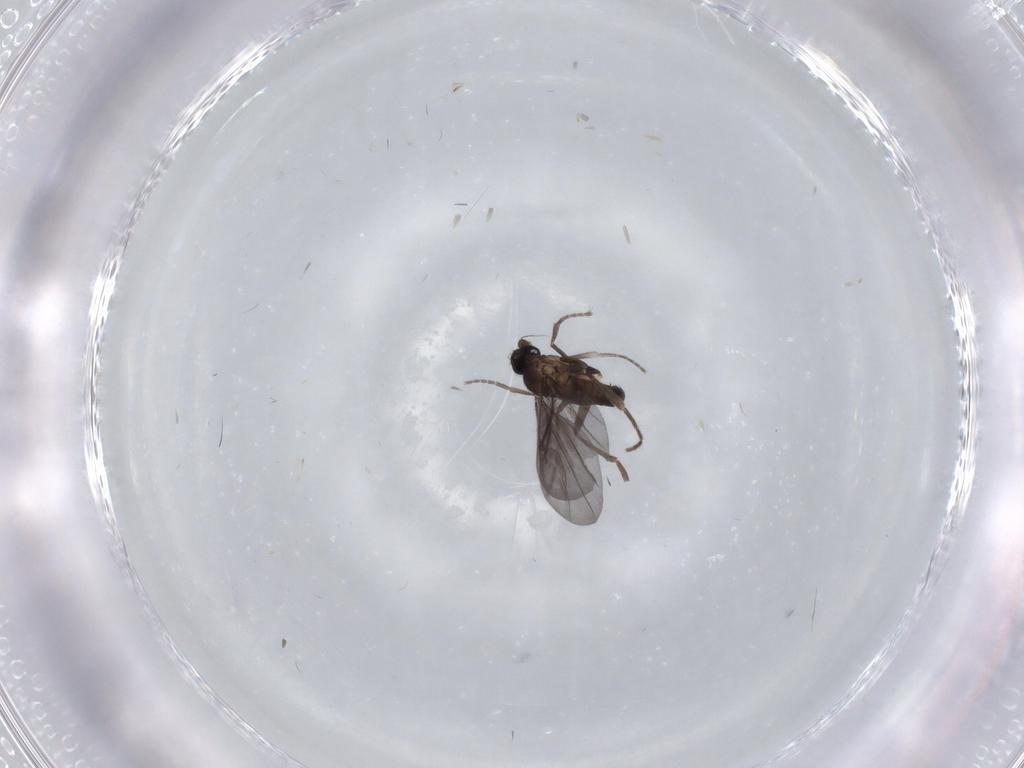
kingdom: Animalia
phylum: Arthropoda
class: Insecta
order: Diptera
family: Phoridae
